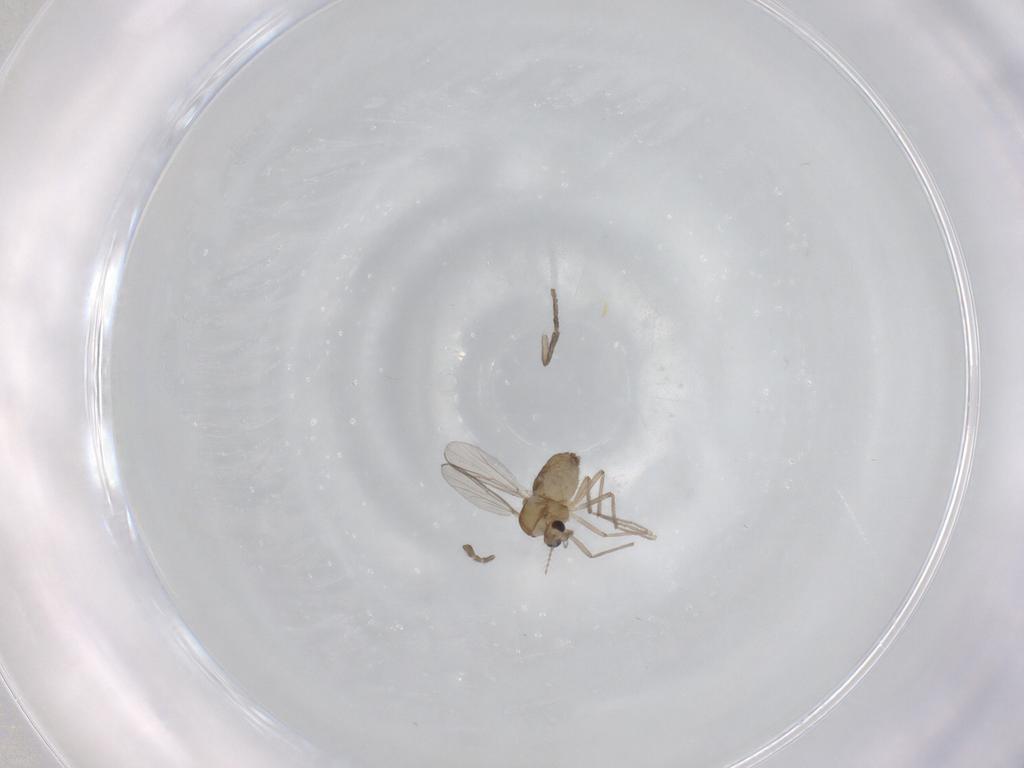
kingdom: Animalia
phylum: Arthropoda
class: Insecta
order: Diptera
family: Chironomidae
